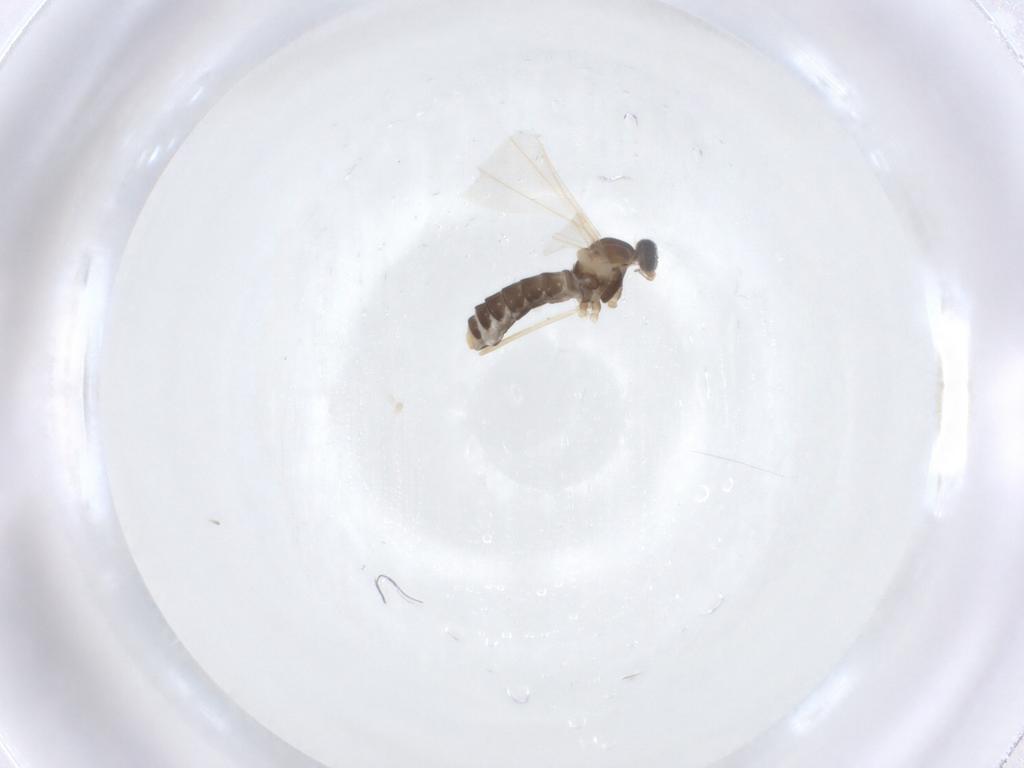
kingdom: Animalia
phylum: Arthropoda
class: Insecta
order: Diptera
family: Cecidomyiidae
